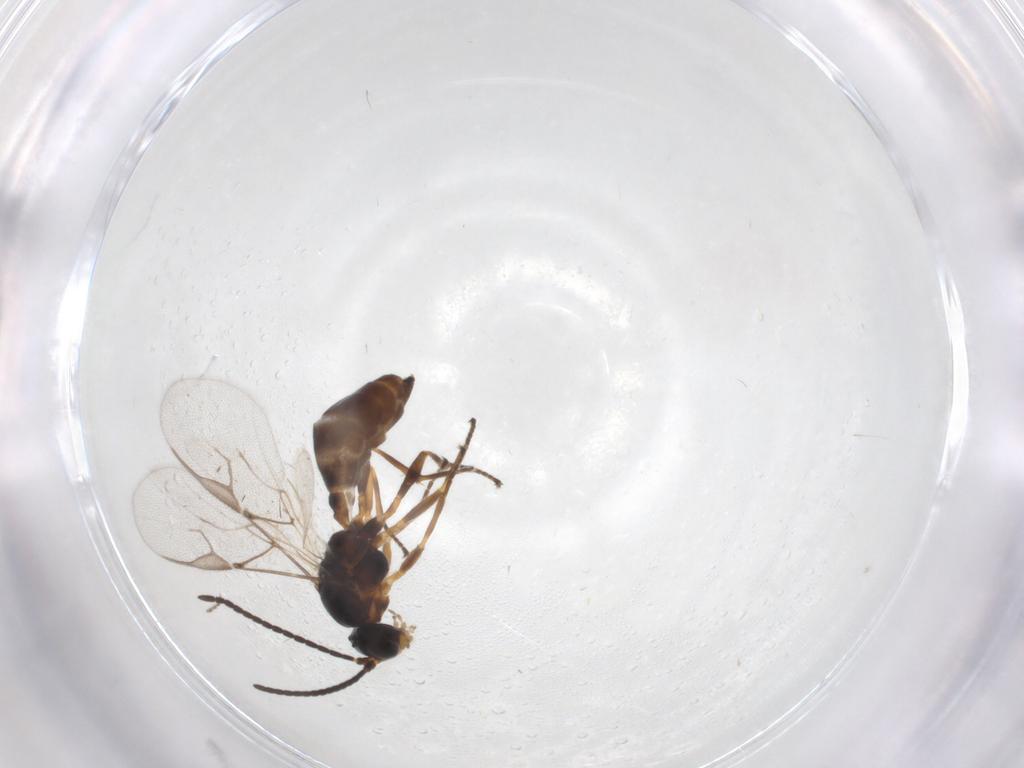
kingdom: Animalia
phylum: Arthropoda
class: Insecta
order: Hymenoptera
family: Braconidae
